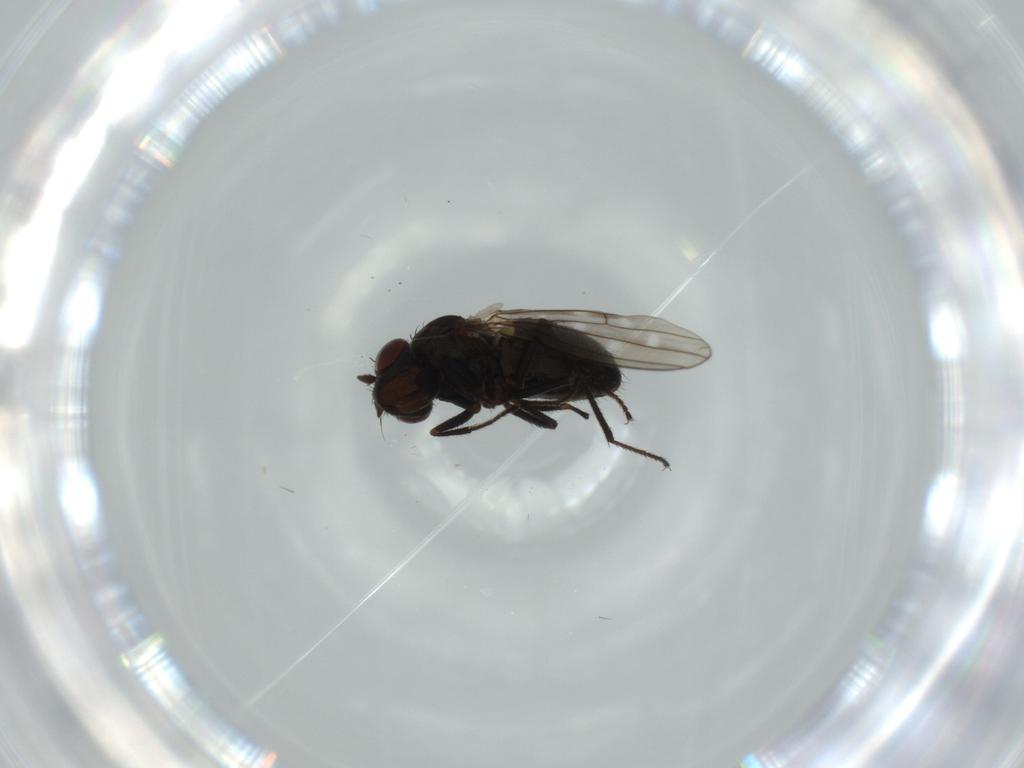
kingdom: Animalia
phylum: Arthropoda
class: Insecta
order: Diptera
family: Ephydridae
